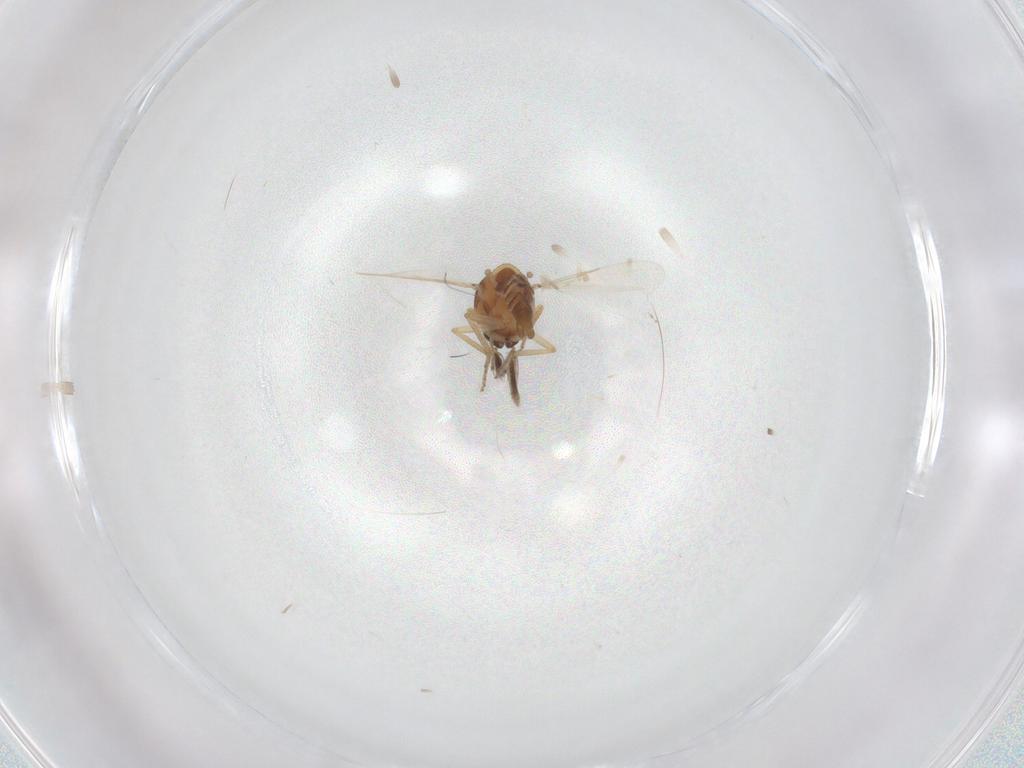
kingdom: Animalia
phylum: Arthropoda
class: Insecta
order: Diptera
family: Ceratopogonidae
